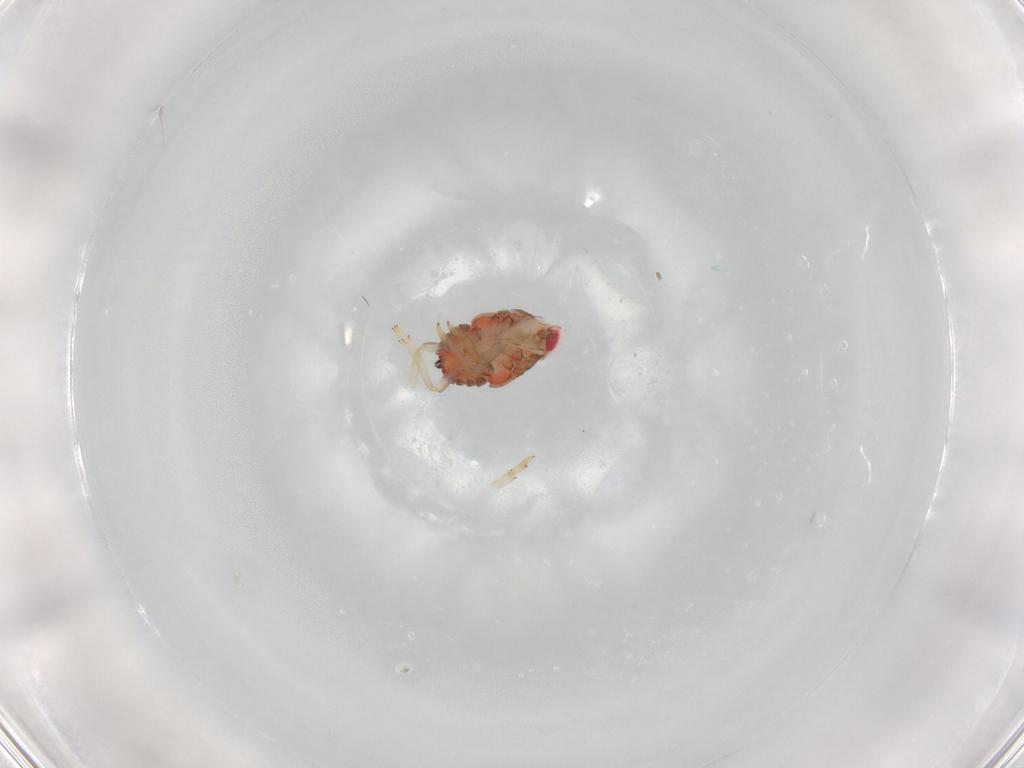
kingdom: Animalia
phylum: Arthropoda
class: Insecta
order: Hemiptera
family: Issidae
